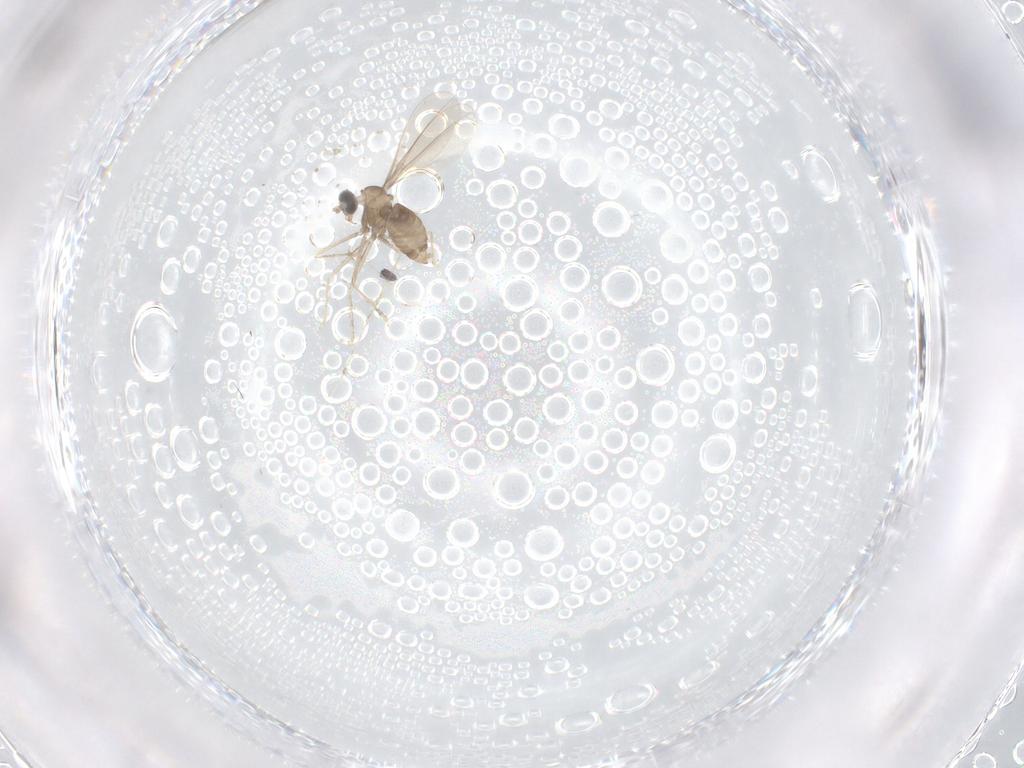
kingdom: Animalia
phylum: Arthropoda
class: Insecta
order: Diptera
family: Cecidomyiidae
